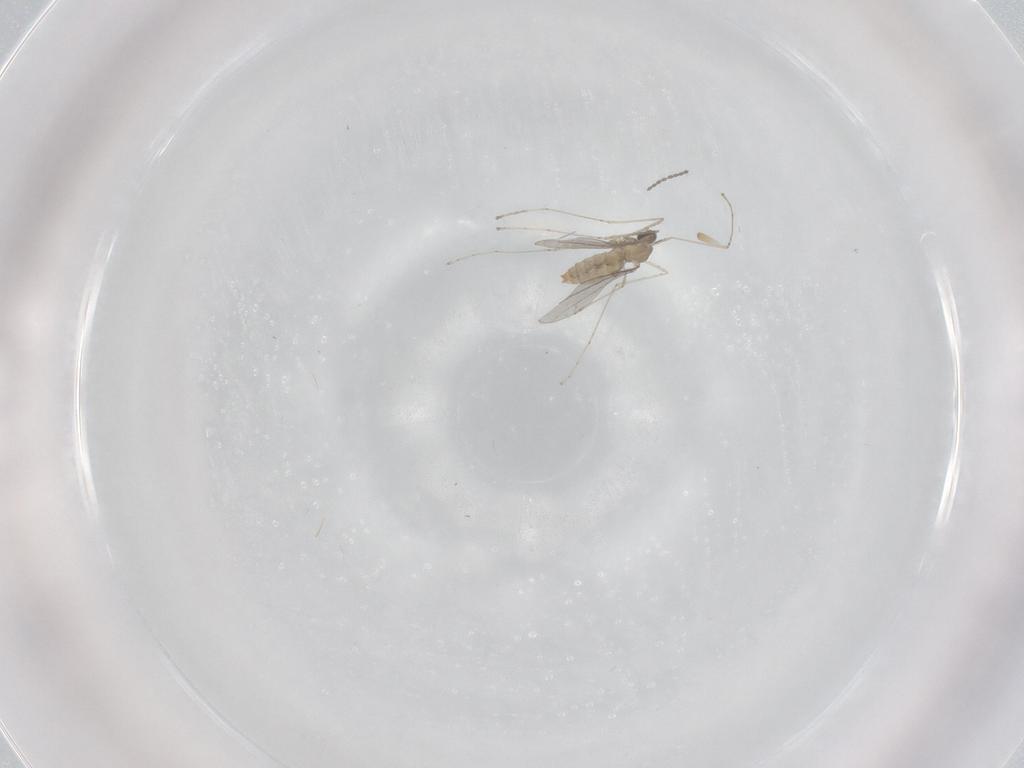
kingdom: Animalia
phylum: Arthropoda
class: Insecta
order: Diptera
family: Cecidomyiidae
